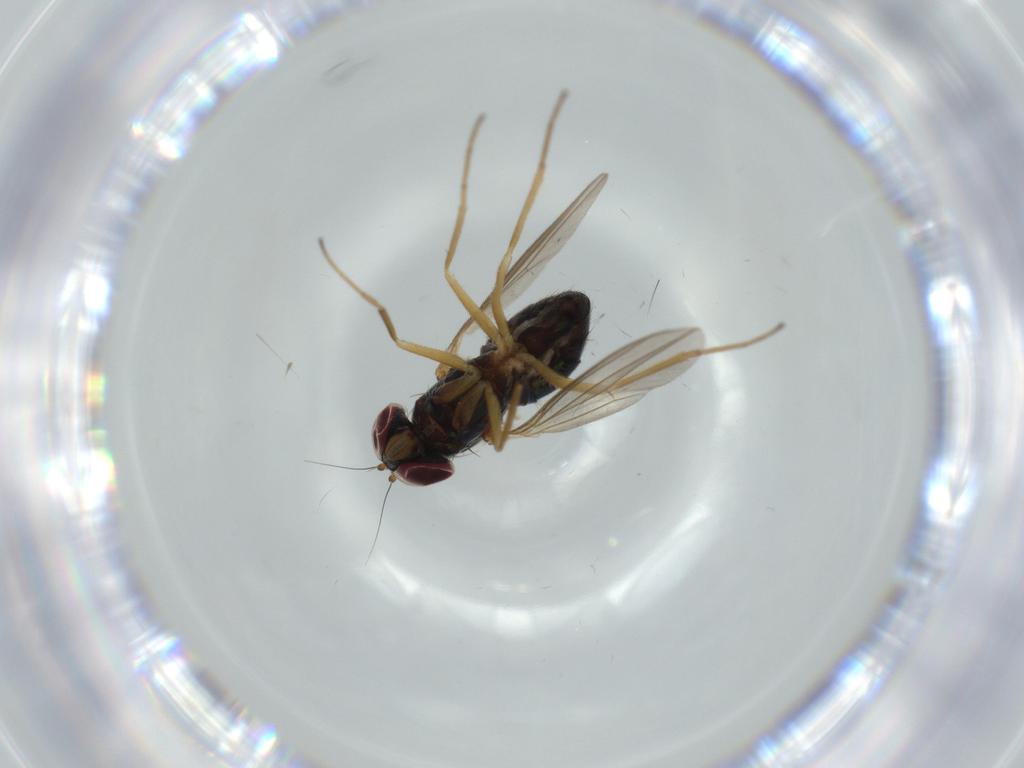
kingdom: Animalia
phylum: Arthropoda
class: Insecta
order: Diptera
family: Dolichopodidae
